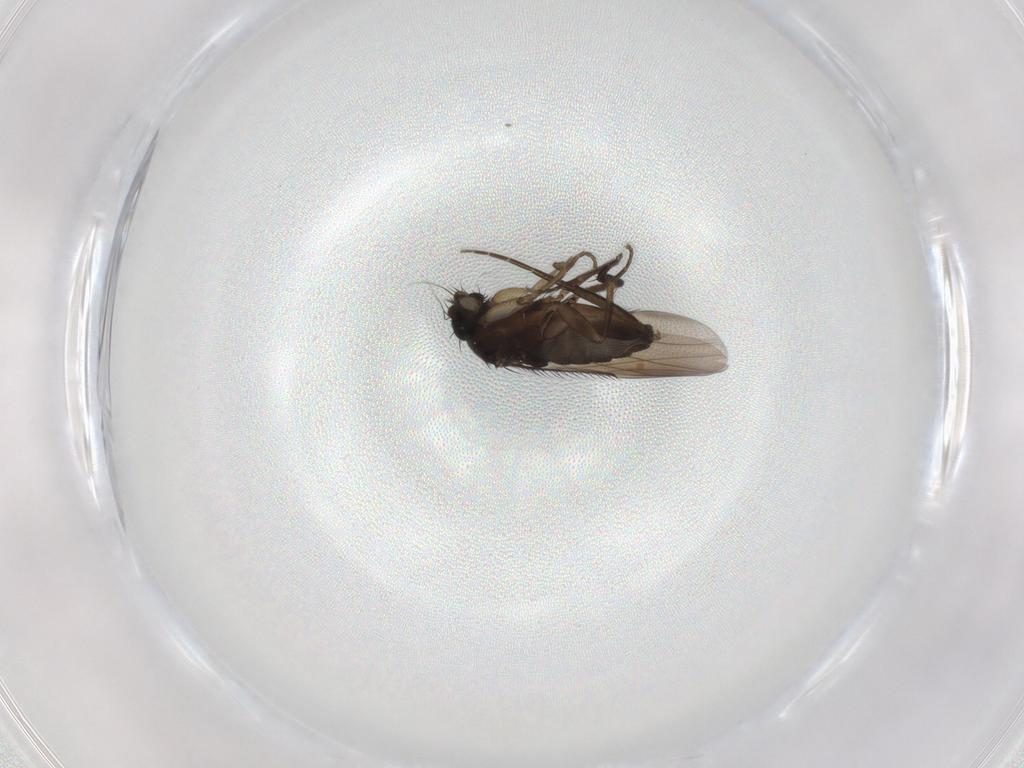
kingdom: Animalia
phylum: Arthropoda
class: Insecta
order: Diptera
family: Phoridae
